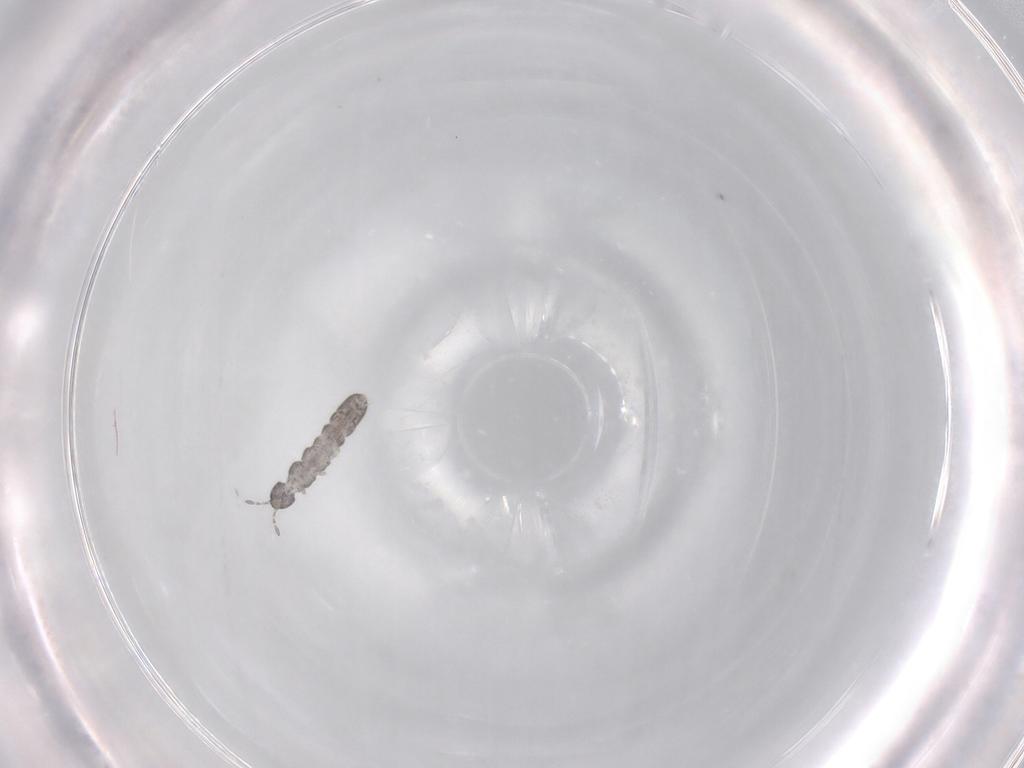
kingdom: Animalia
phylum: Arthropoda
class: Collembola
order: Entomobryomorpha
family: Isotomidae
